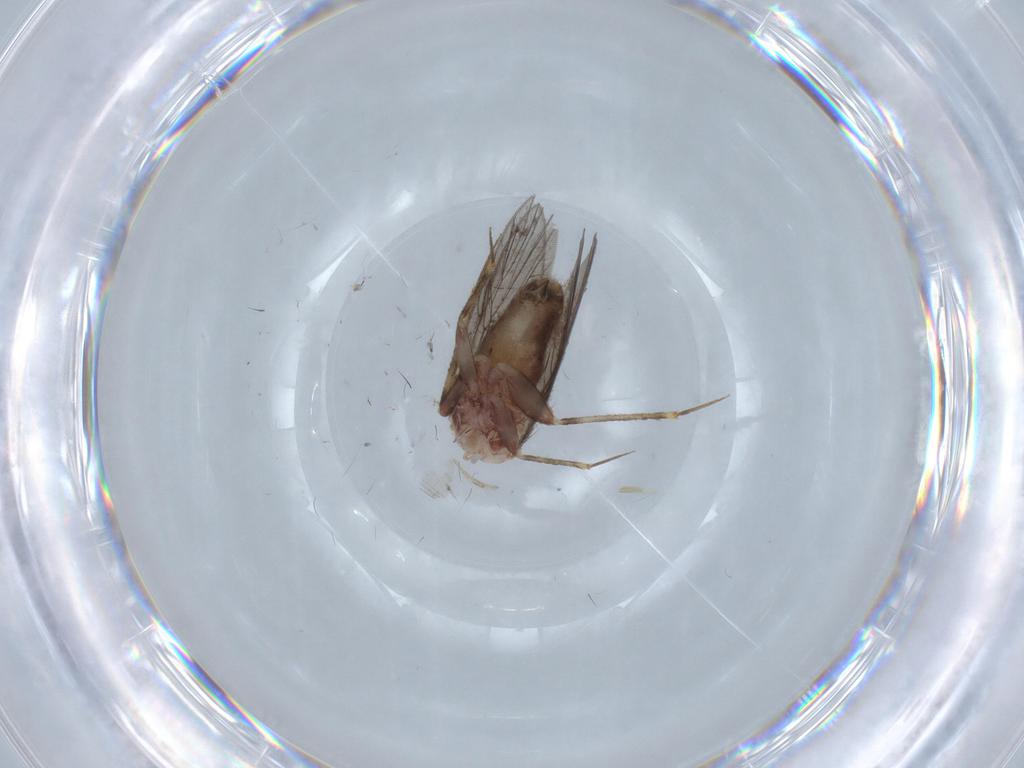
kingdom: Animalia
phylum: Arthropoda
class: Insecta
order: Psocodea
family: Lepidopsocidae
